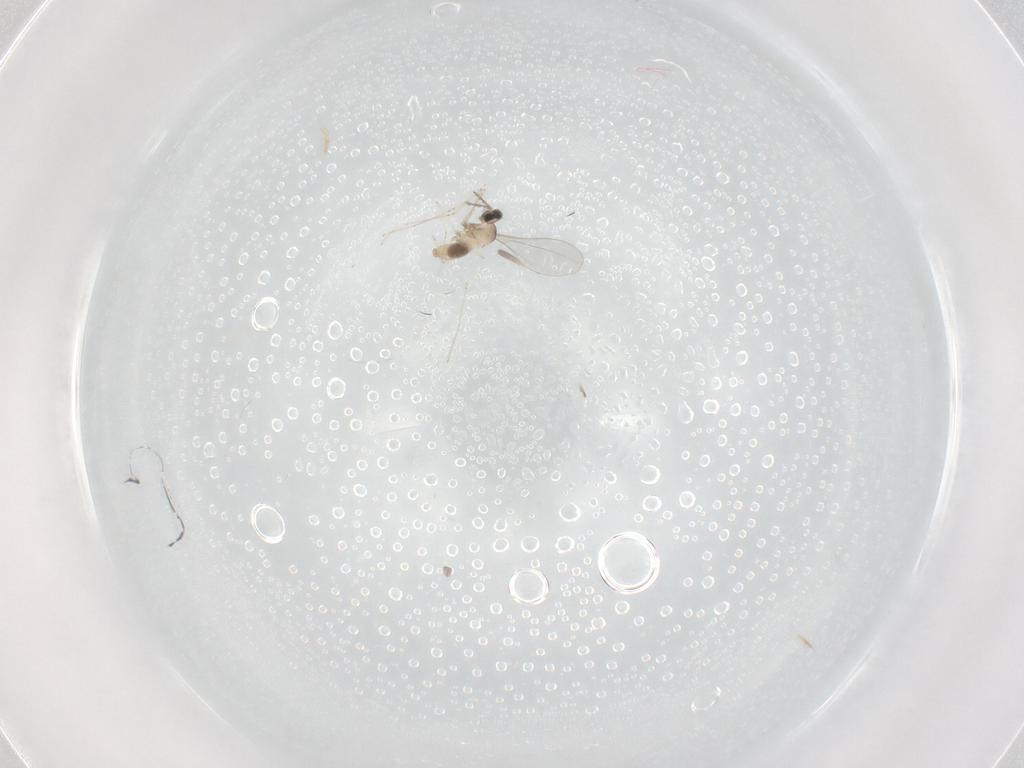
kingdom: Animalia
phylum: Arthropoda
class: Insecta
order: Diptera
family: Cecidomyiidae
